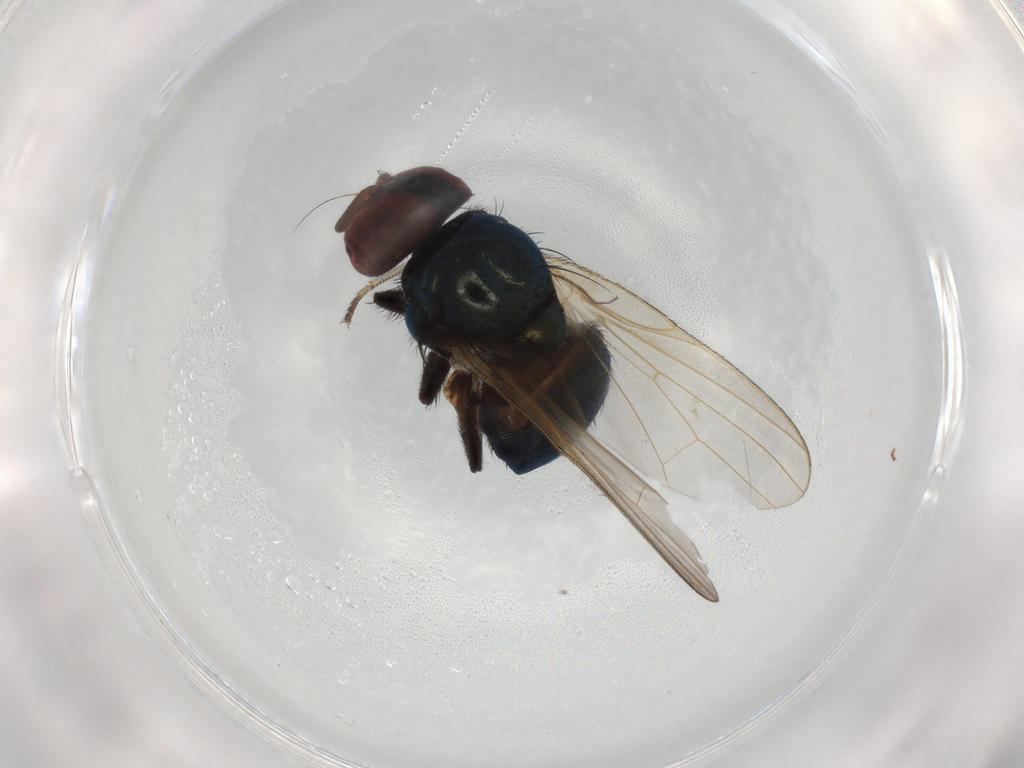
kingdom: Animalia
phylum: Arthropoda
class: Insecta
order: Diptera
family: Lonchaeidae
